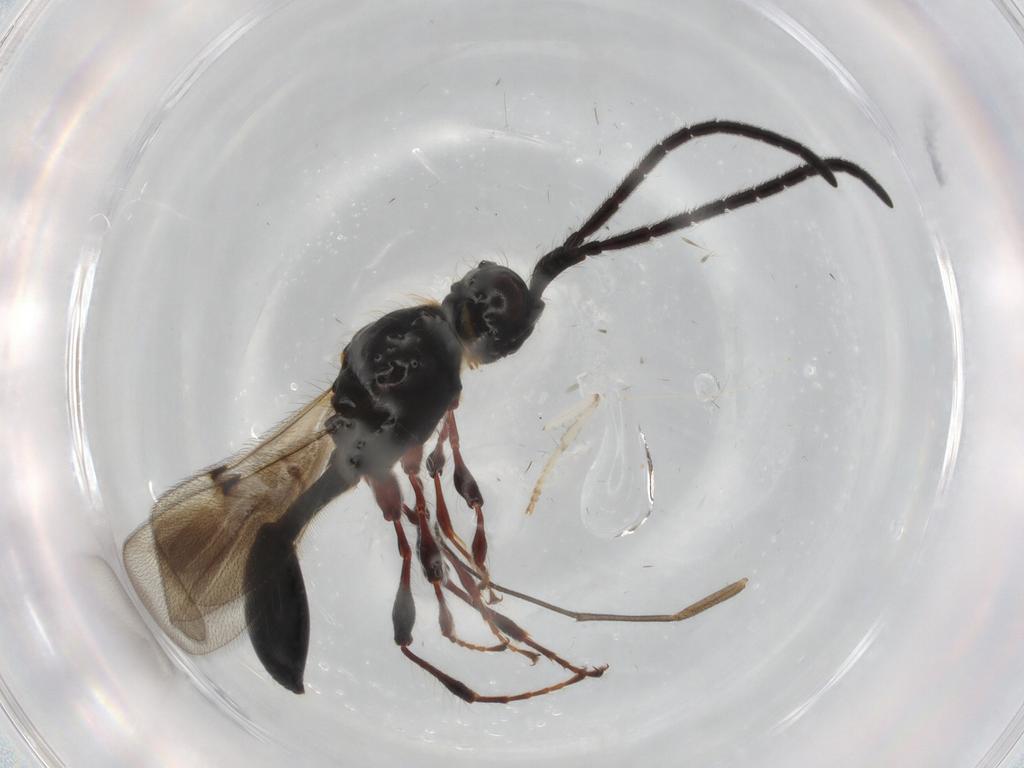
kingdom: Animalia
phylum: Arthropoda
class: Insecta
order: Hymenoptera
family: Diapriidae
